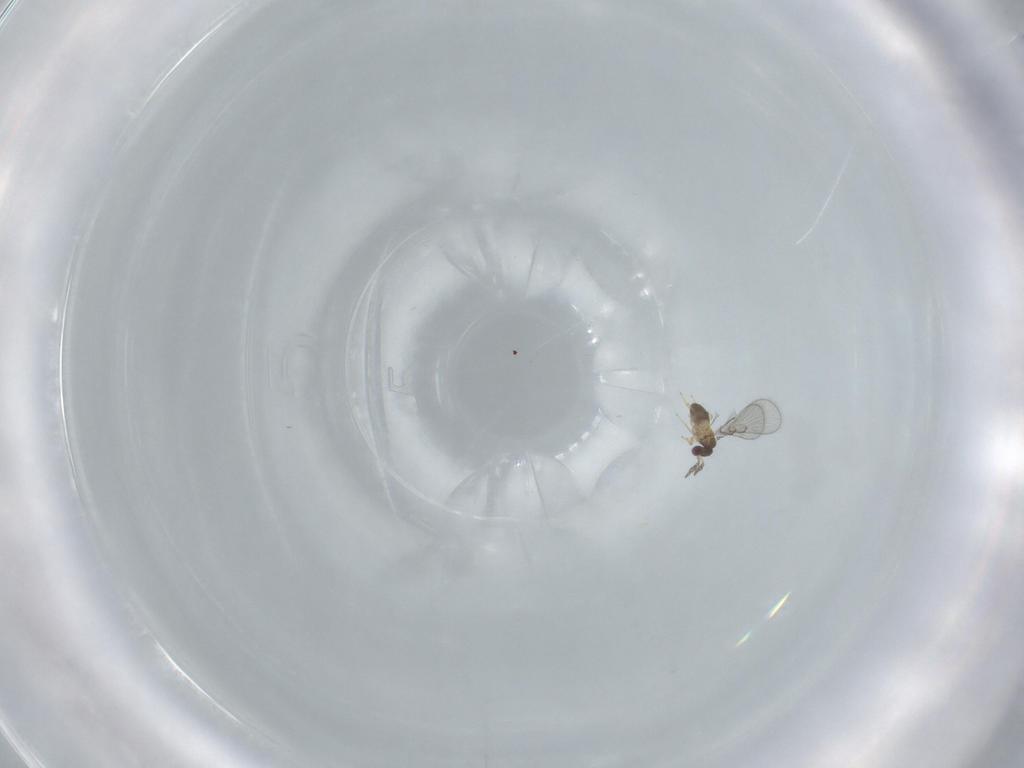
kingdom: Animalia
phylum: Arthropoda
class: Insecta
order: Hymenoptera
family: Trichogrammatidae
